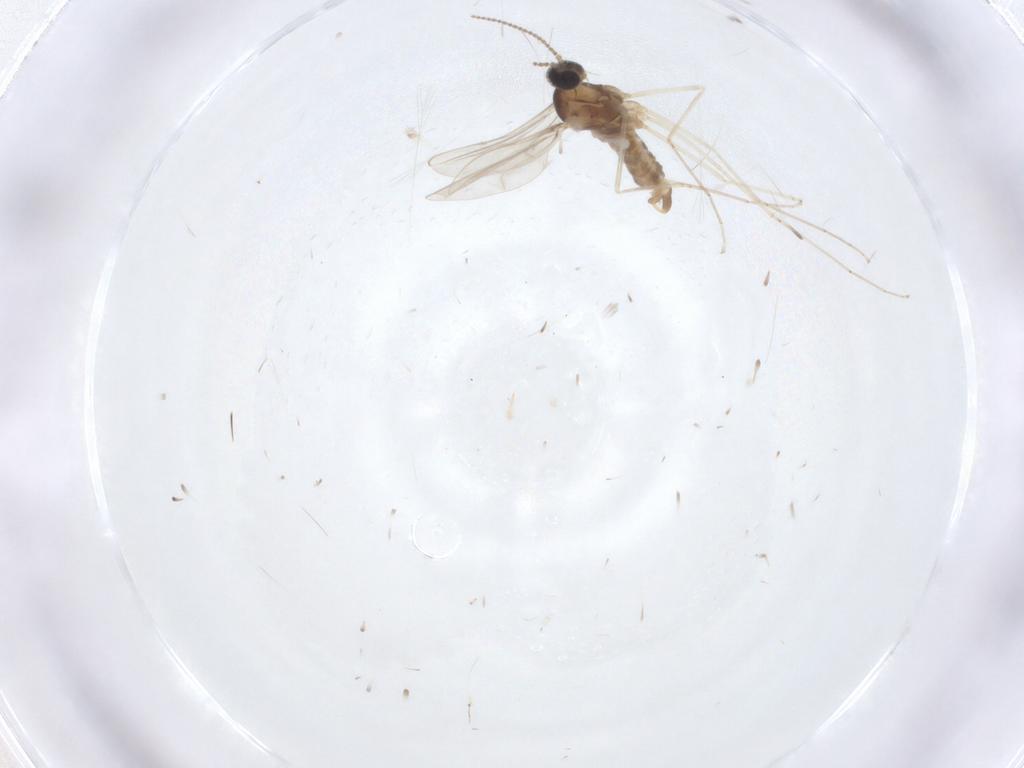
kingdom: Animalia
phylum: Arthropoda
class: Insecta
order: Diptera
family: Cecidomyiidae
